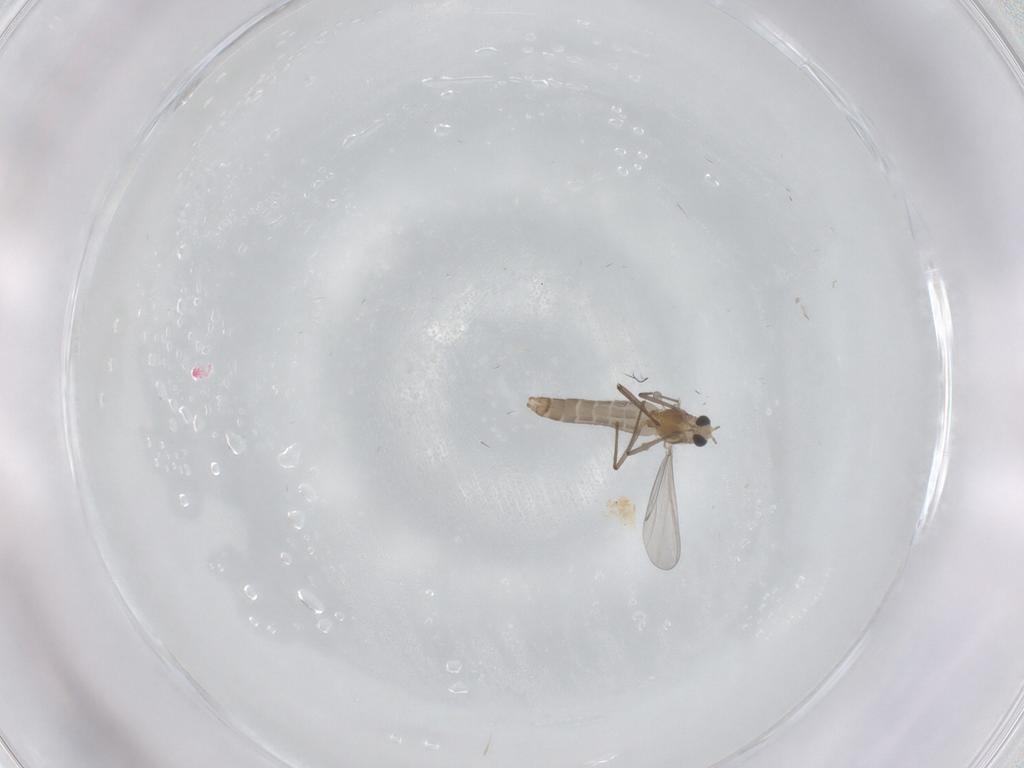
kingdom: Animalia
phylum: Arthropoda
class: Insecta
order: Diptera
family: Phoridae
